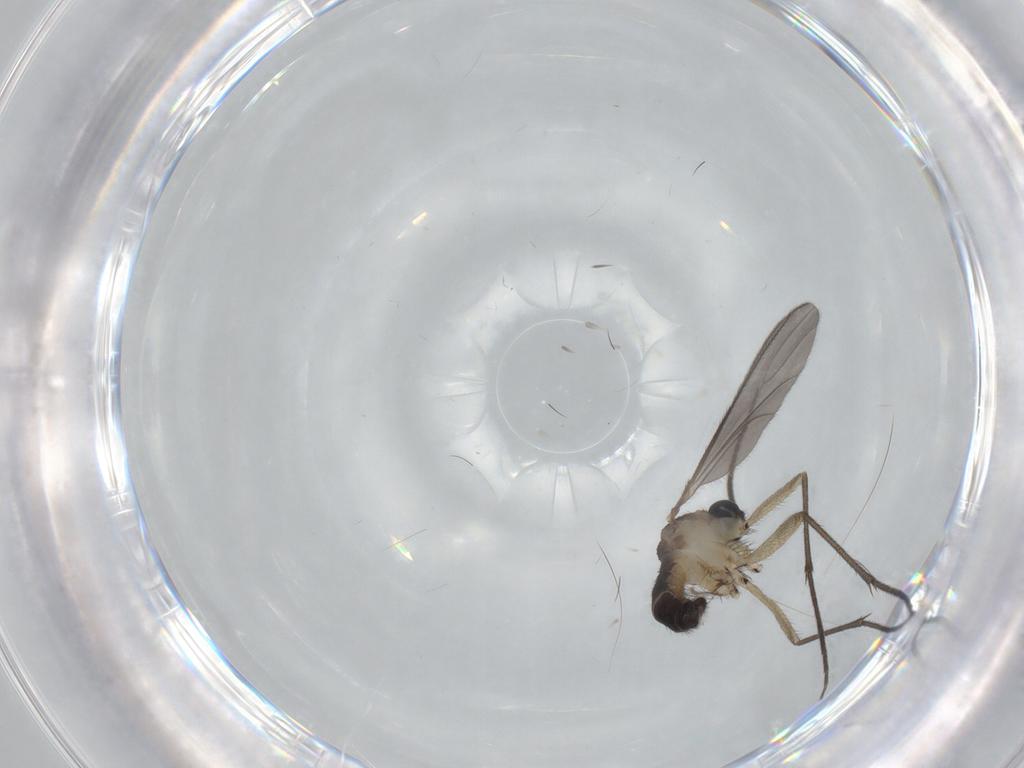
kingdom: Animalia
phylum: Arthropoda
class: Insecta
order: Diptera
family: Sciaridae
